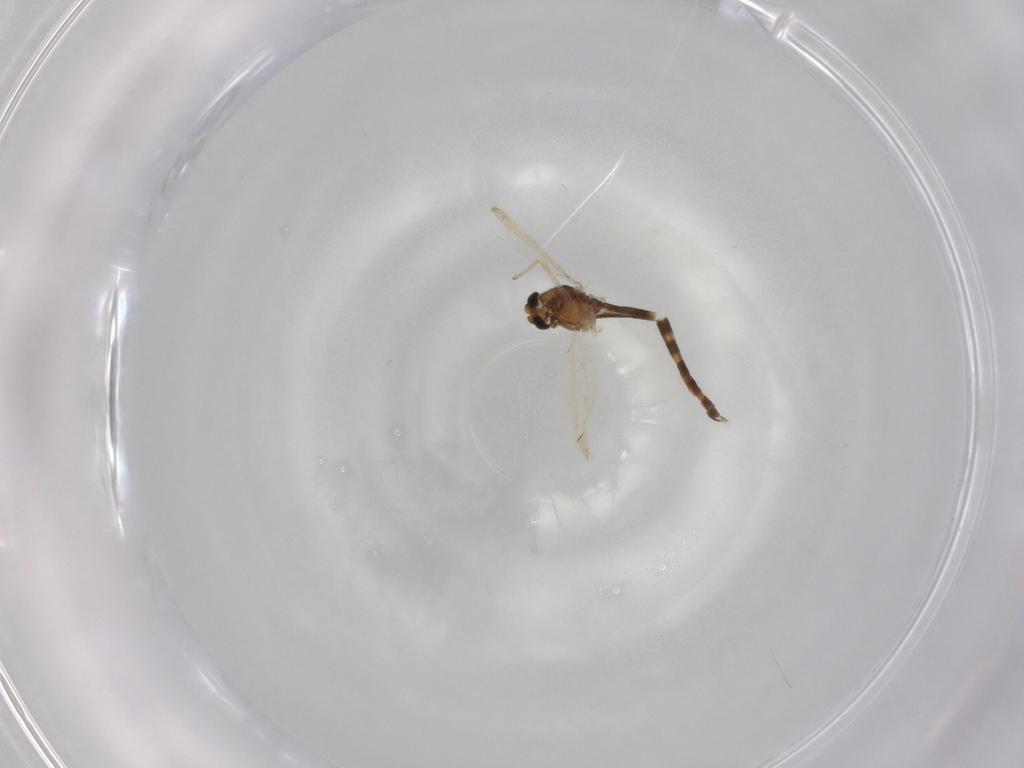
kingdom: Animalia
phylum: Arthropoda
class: Insecta
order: Diptera
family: Chironomidae
